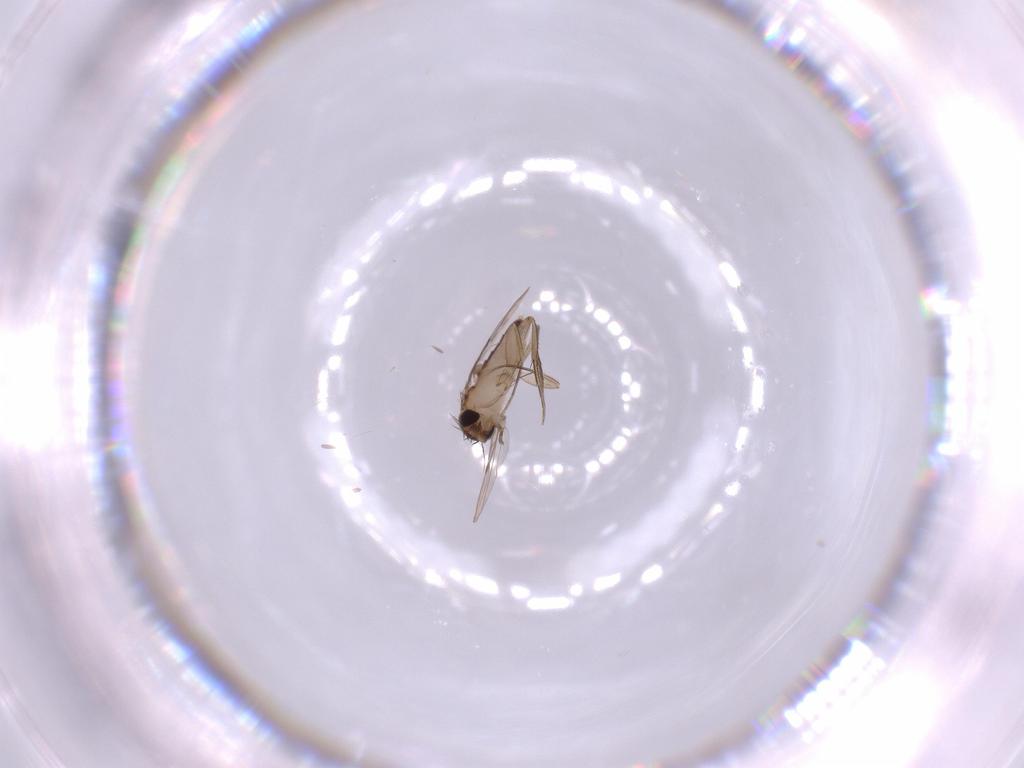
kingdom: Animalia
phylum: Arthropoda
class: Insecta
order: Diptera
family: Phoridae
